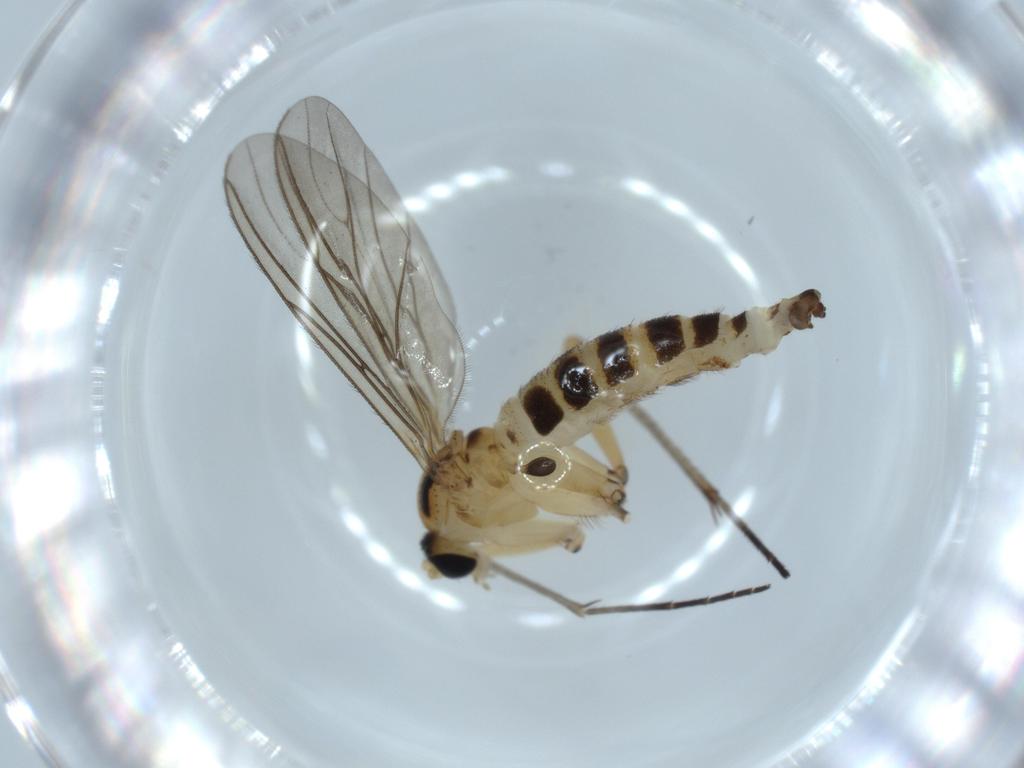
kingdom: Animalia
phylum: Arthropoda
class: Insecta
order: Diptera
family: Sciaridae
